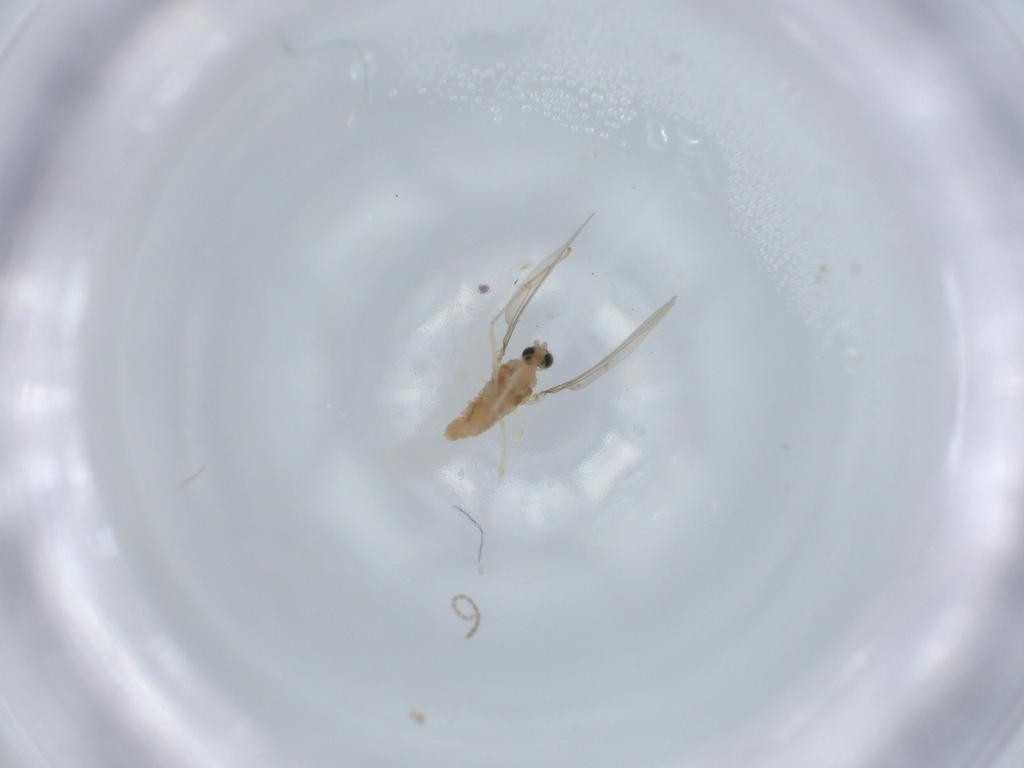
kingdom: Animalia
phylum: Arthropoda
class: Insecta
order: Diptera
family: Cecidomyiidae
